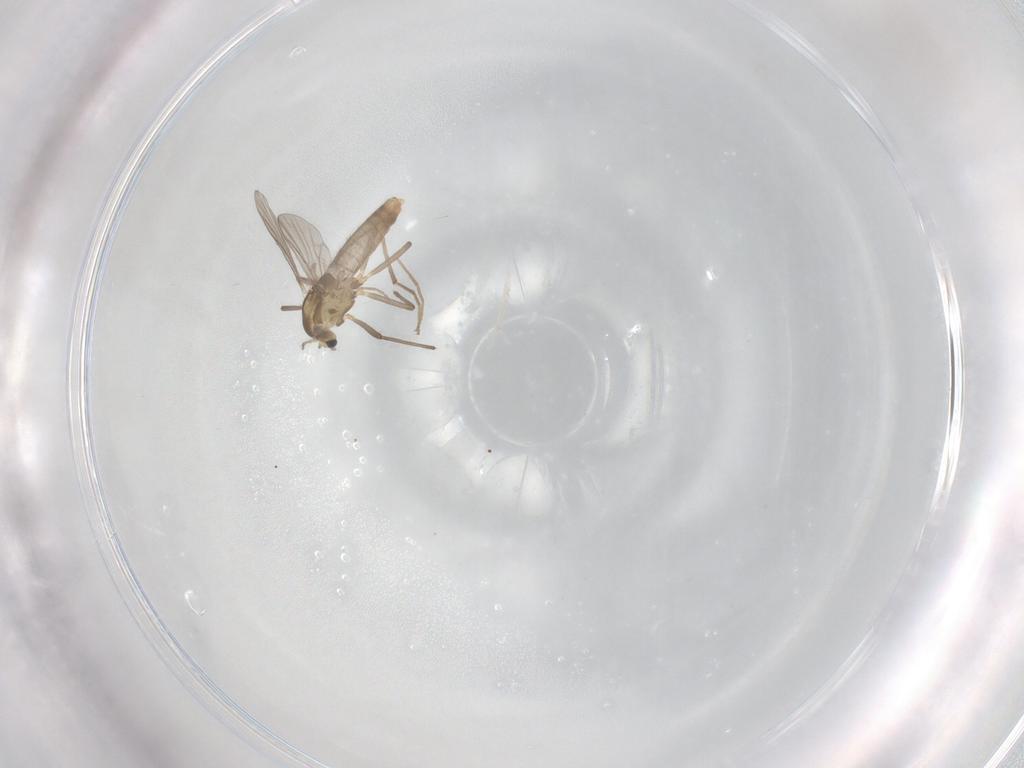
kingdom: Animalia
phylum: Arthropoda
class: Insecta
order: Diptera
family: Chironomidae
